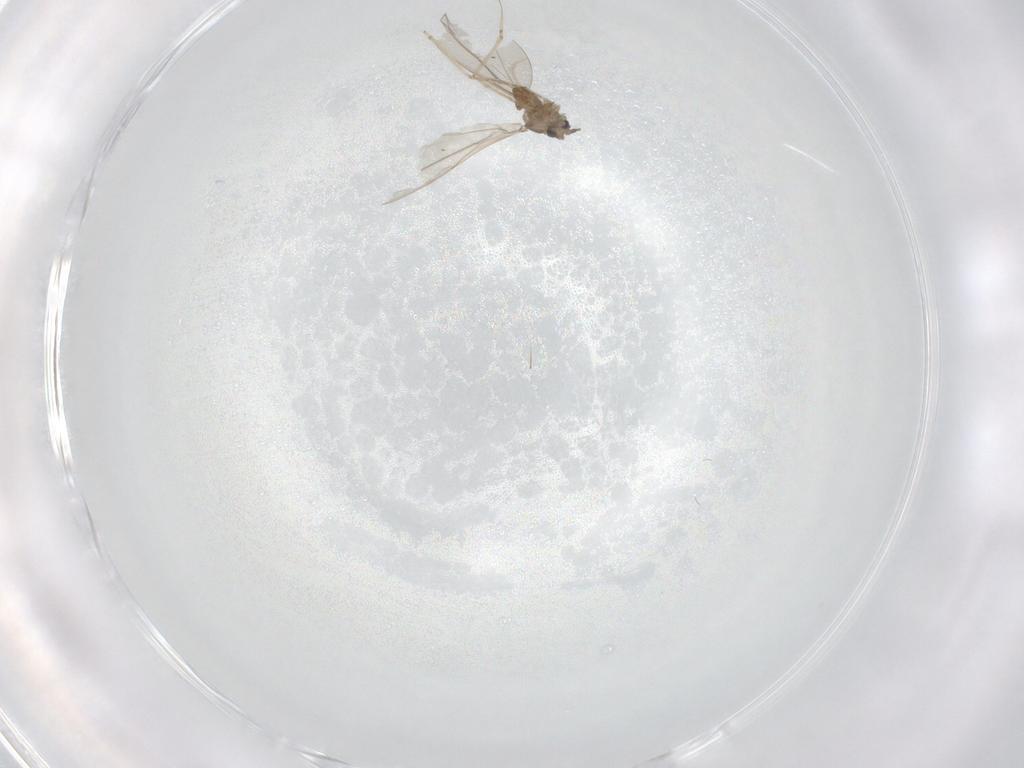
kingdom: Animalia
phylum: Arthropoda
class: Insecta
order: Diptera
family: Cecidomyiidae
